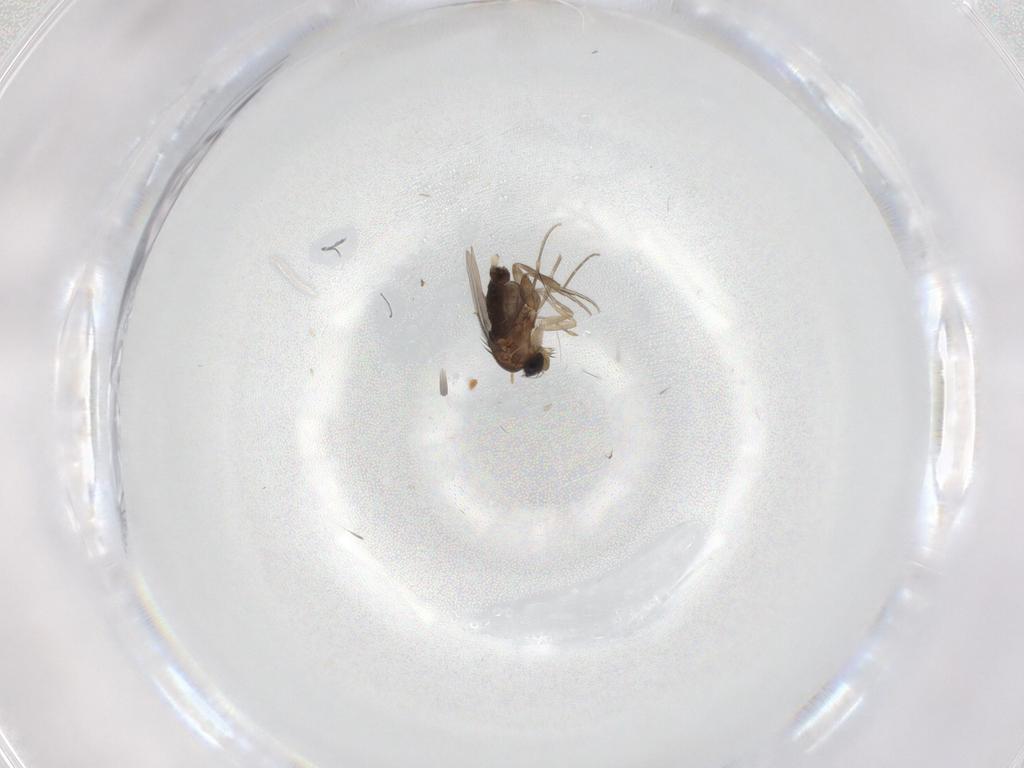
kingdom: Animalia
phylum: Arthropoda
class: Insecta
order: Diptera
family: Phoridae
